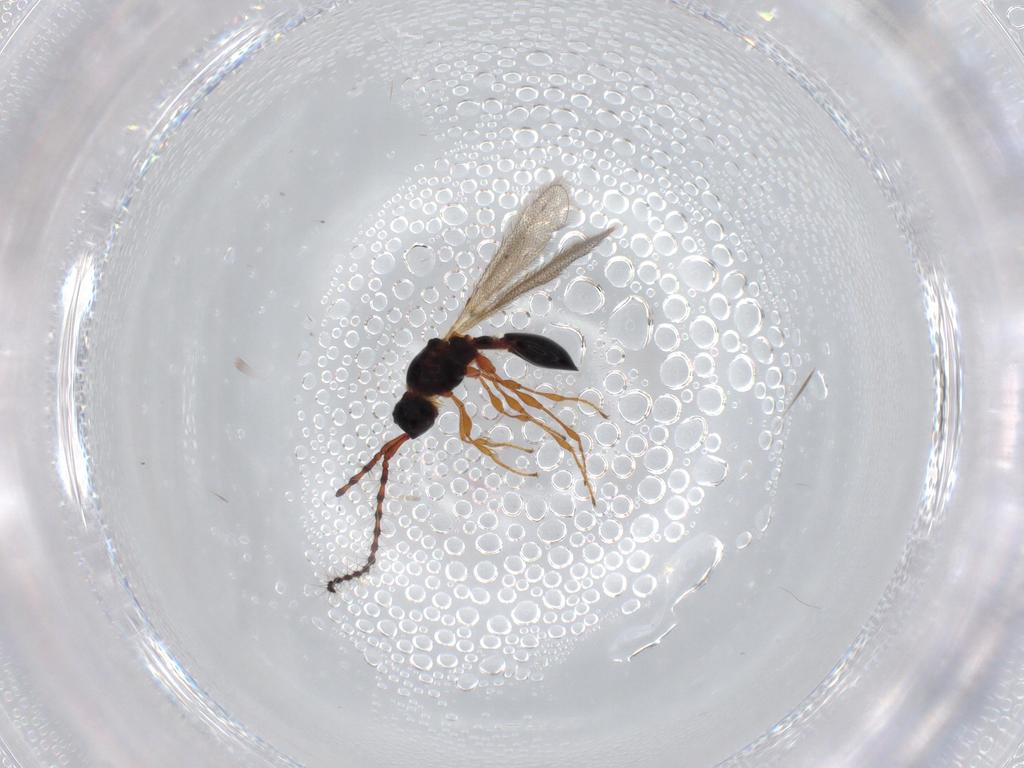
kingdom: Animalia
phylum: Arthropoda
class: Insecta
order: Hymenoptera
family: Diapriidae
